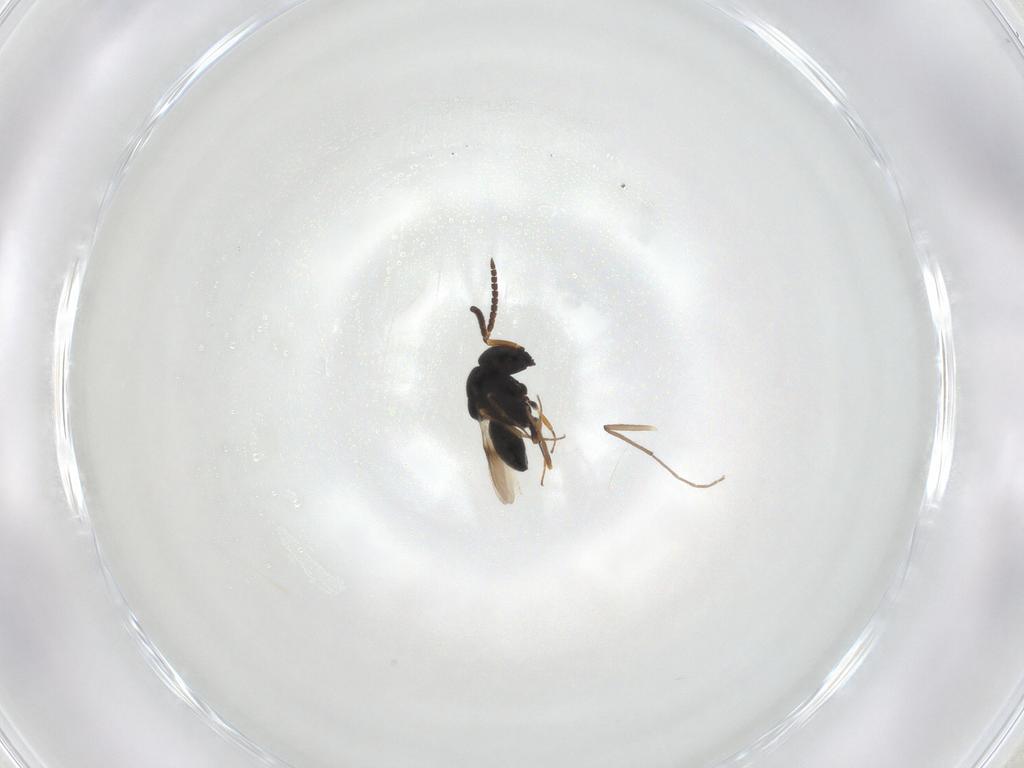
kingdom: Animalia
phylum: Arthropoda
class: Insecta
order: Hymenoptera
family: Scelionidae
